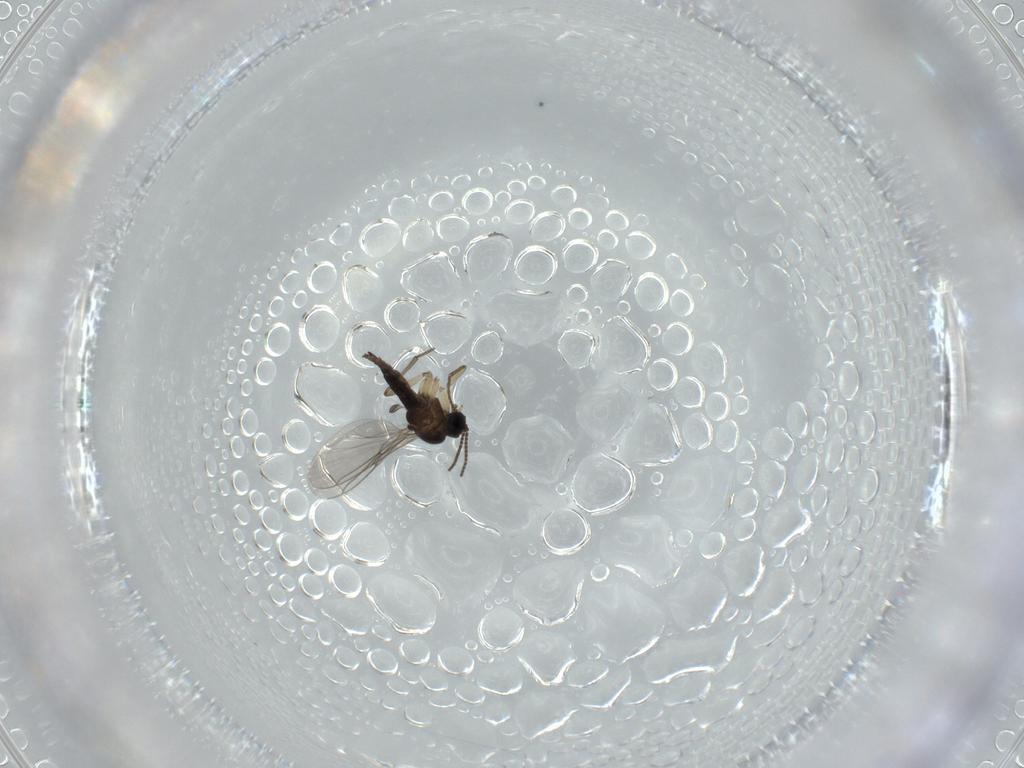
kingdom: Animalia
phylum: Arthropoda
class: Insecta
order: Diptera
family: Sciaridae
